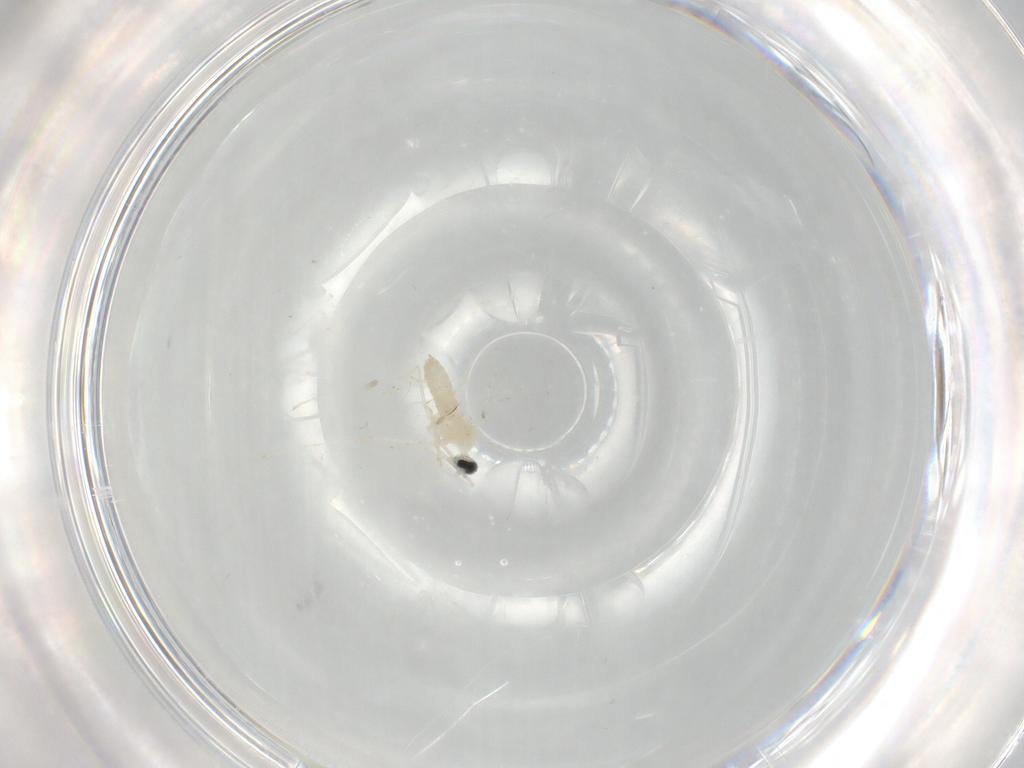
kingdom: Animalia
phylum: Arthropoda
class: Insecta
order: Diptera
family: Cecidomyiidae
